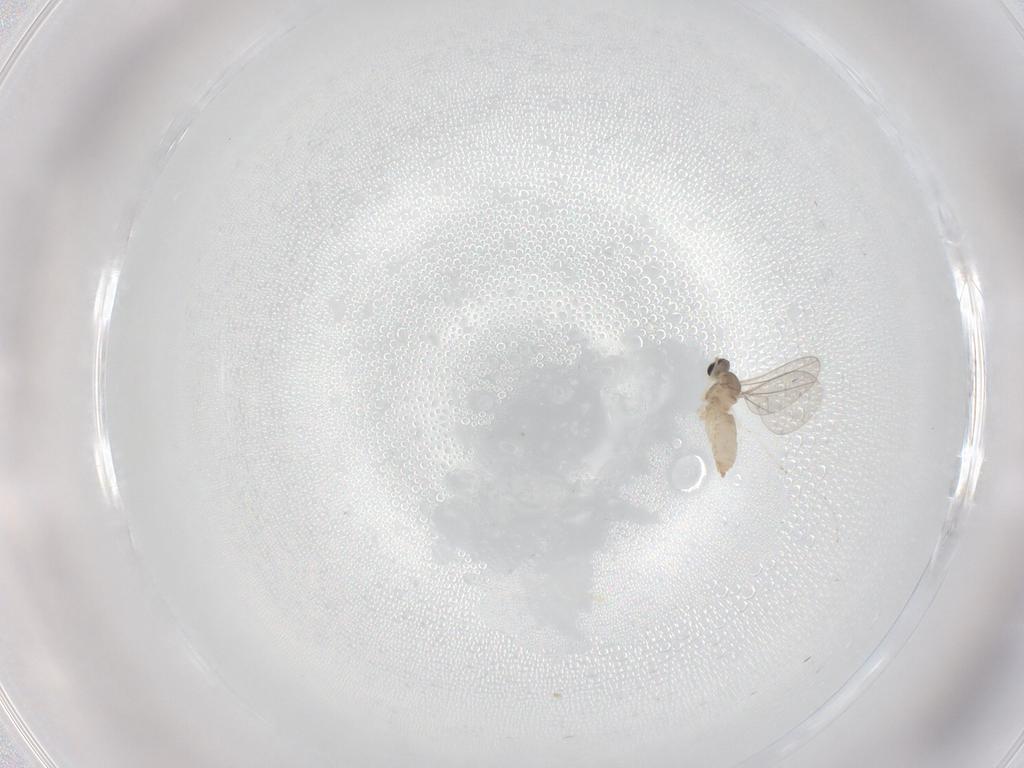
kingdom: Animalia
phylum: Arthropoda
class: Insecta
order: Diptera
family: Cecidomyiidae
